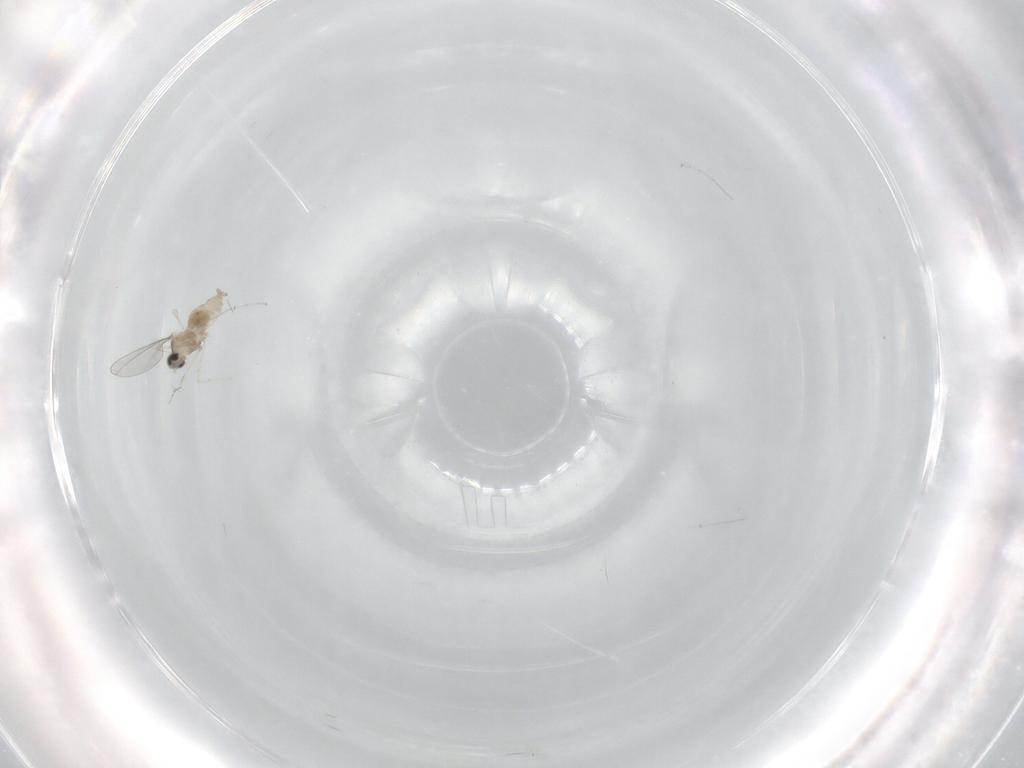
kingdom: Animalia
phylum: Arthropoda
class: Insecta
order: Diptera
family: Cecidomyiidae
